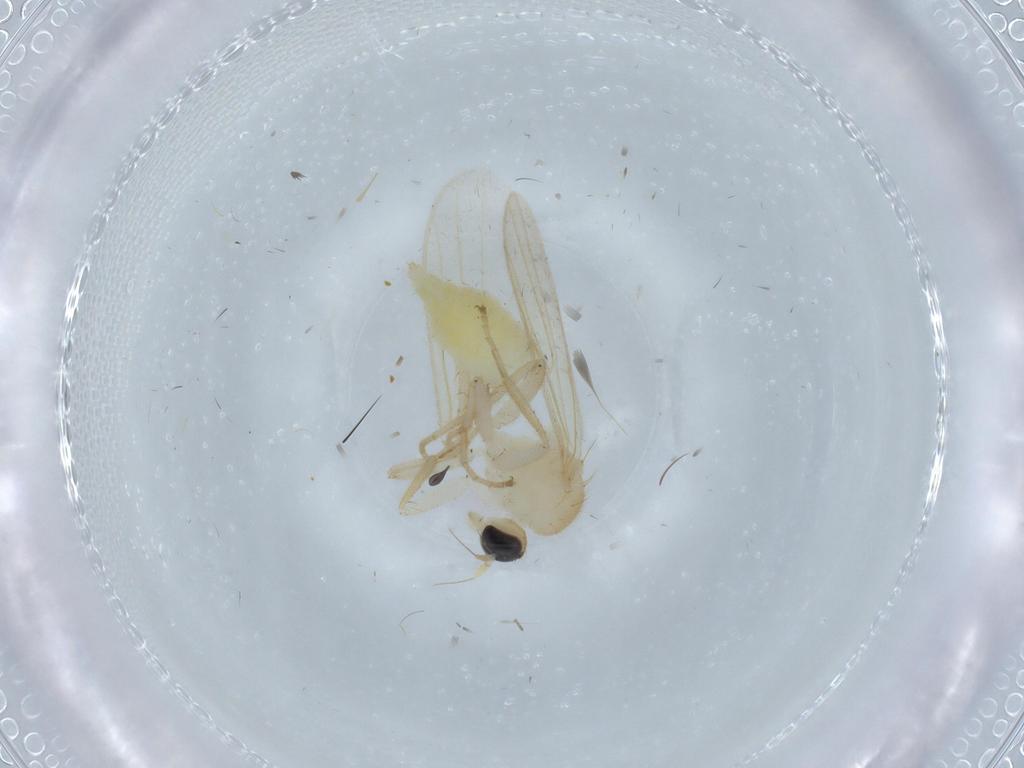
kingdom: Animalia
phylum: Arthropoda
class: Insecta
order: Diptera
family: Hybotidae
